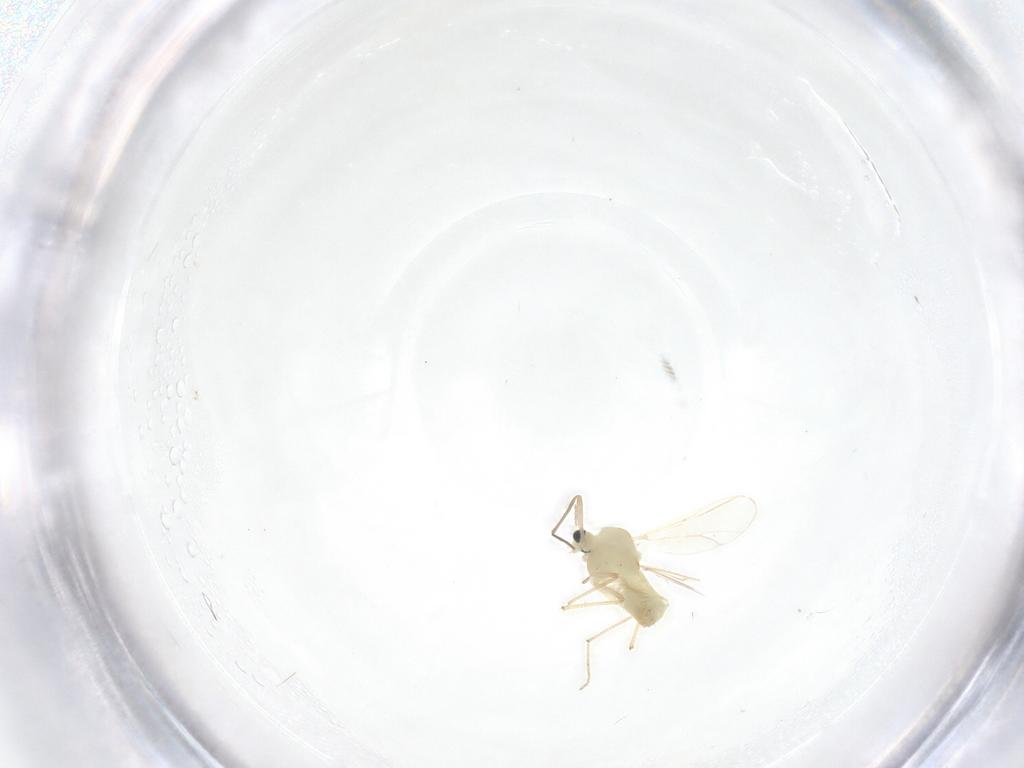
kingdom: Animalia
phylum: Arthropoda
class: Insecta
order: Diptera
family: Chironomidae
